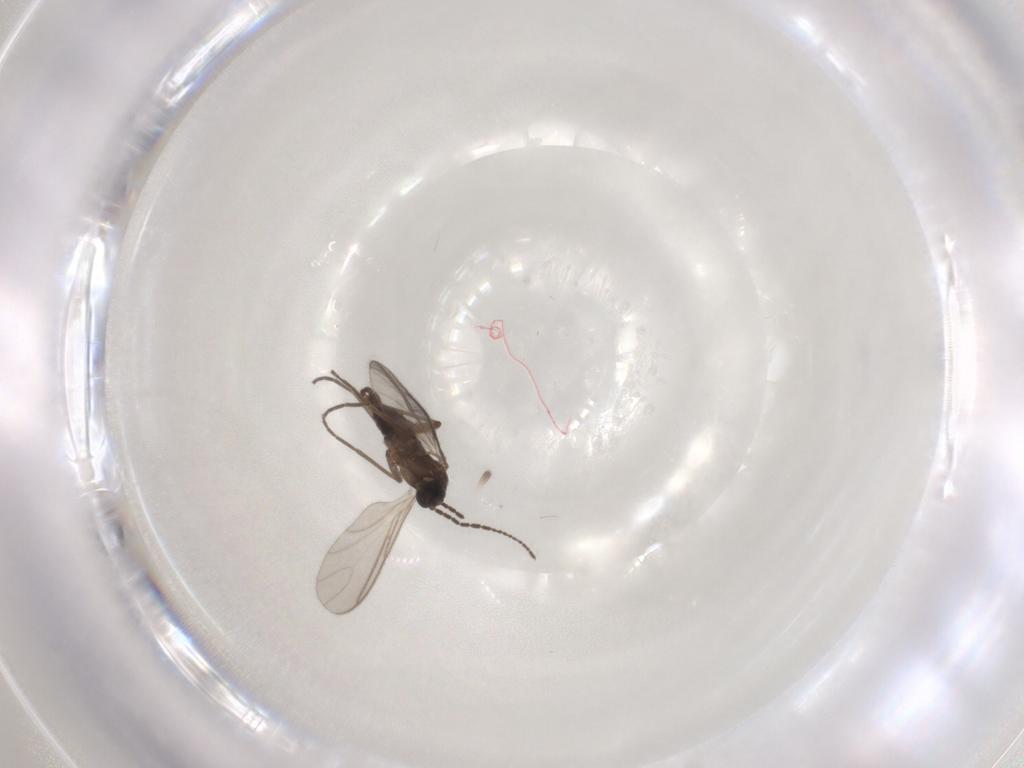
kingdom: Animalia
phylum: Arthropoda
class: Insecta
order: Diptera
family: Sciaridae
